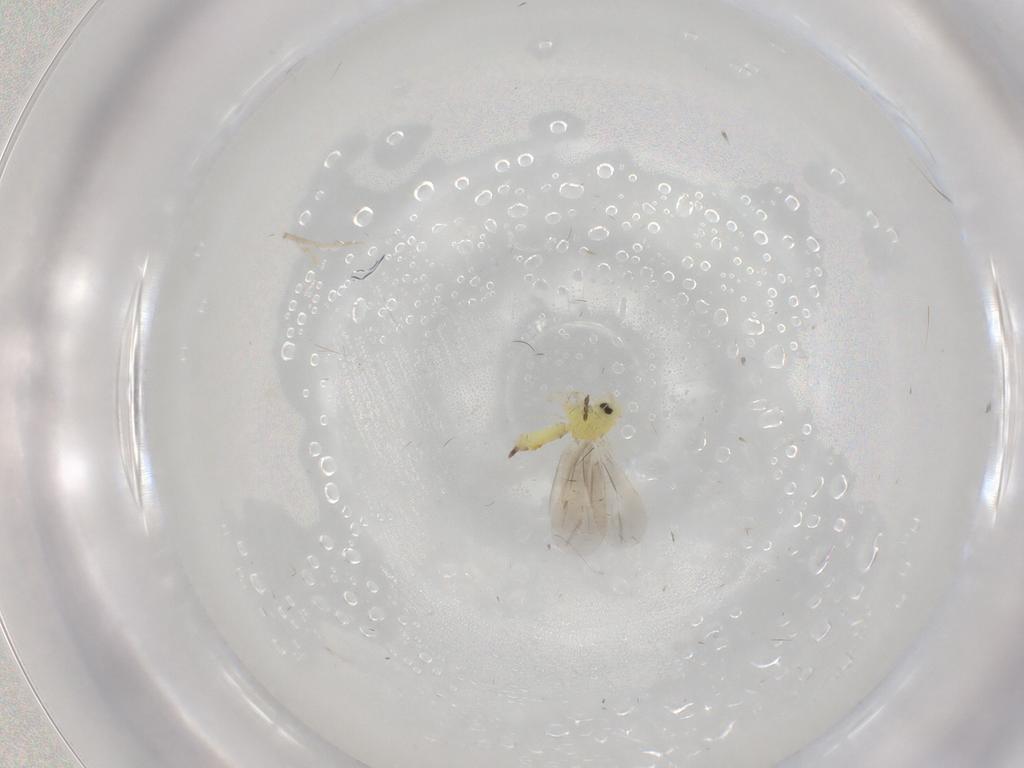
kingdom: Animalia
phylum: Arthropoda
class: Insecta
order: Hemiptera
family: Aleyrodidae
